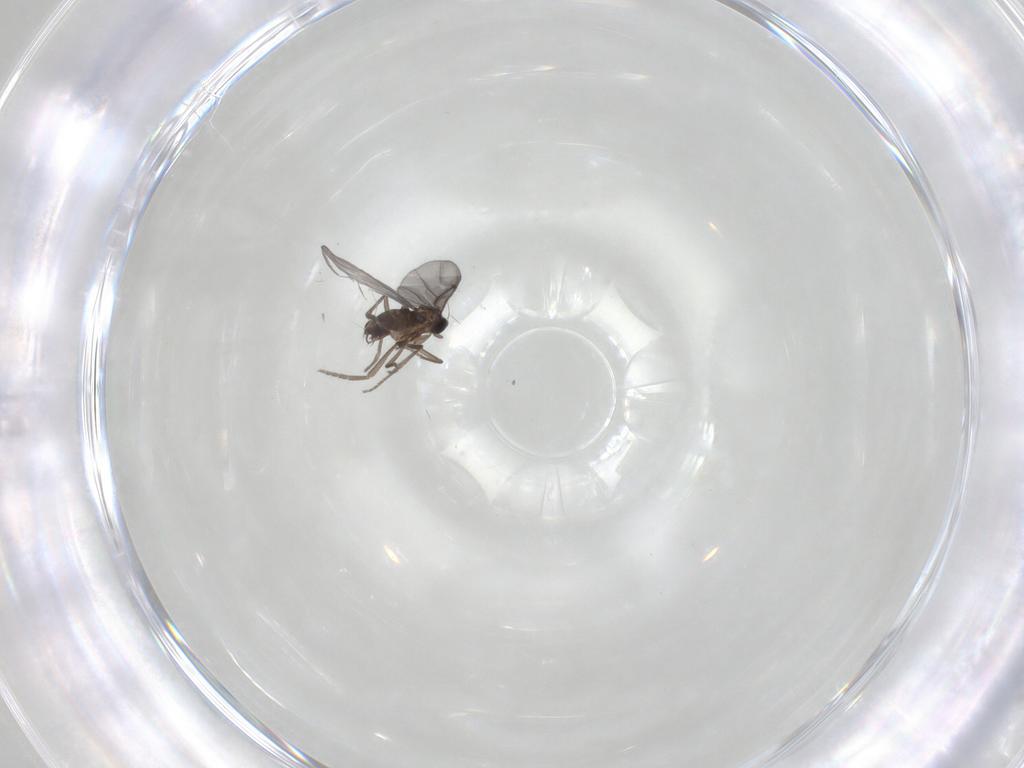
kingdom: Animalia
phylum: Arthropoda
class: Insecta
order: Diptera
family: Phoridae
